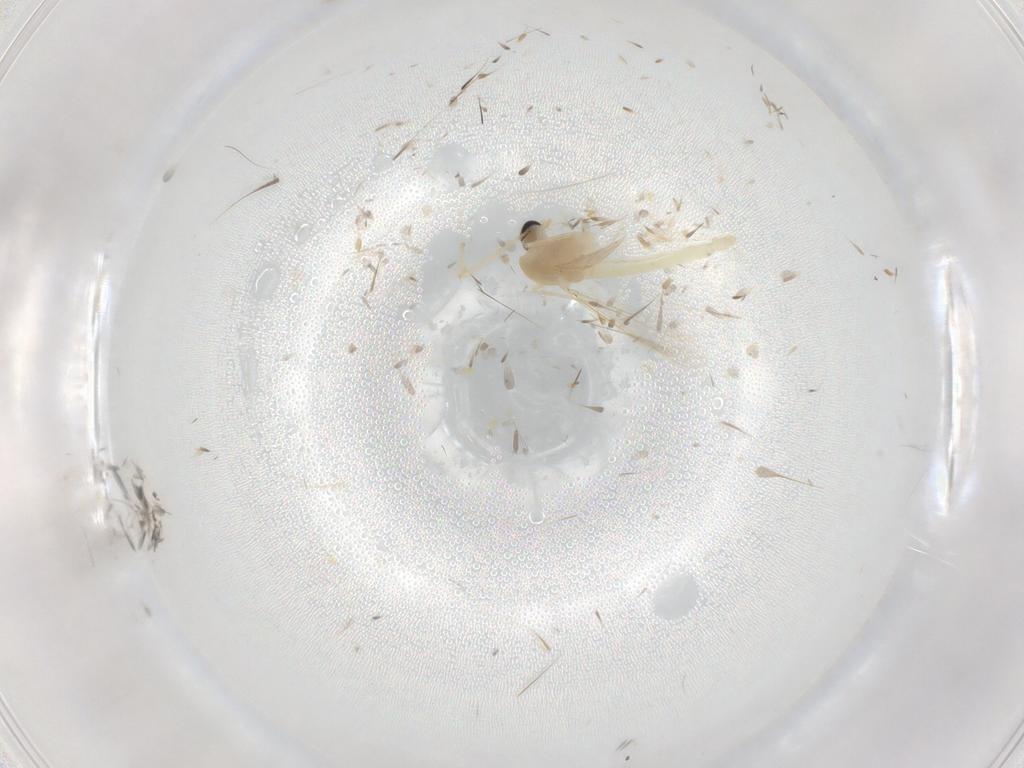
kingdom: Animalia
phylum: Arthropoda
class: Insecta
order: Diptera
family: Chironomidae
